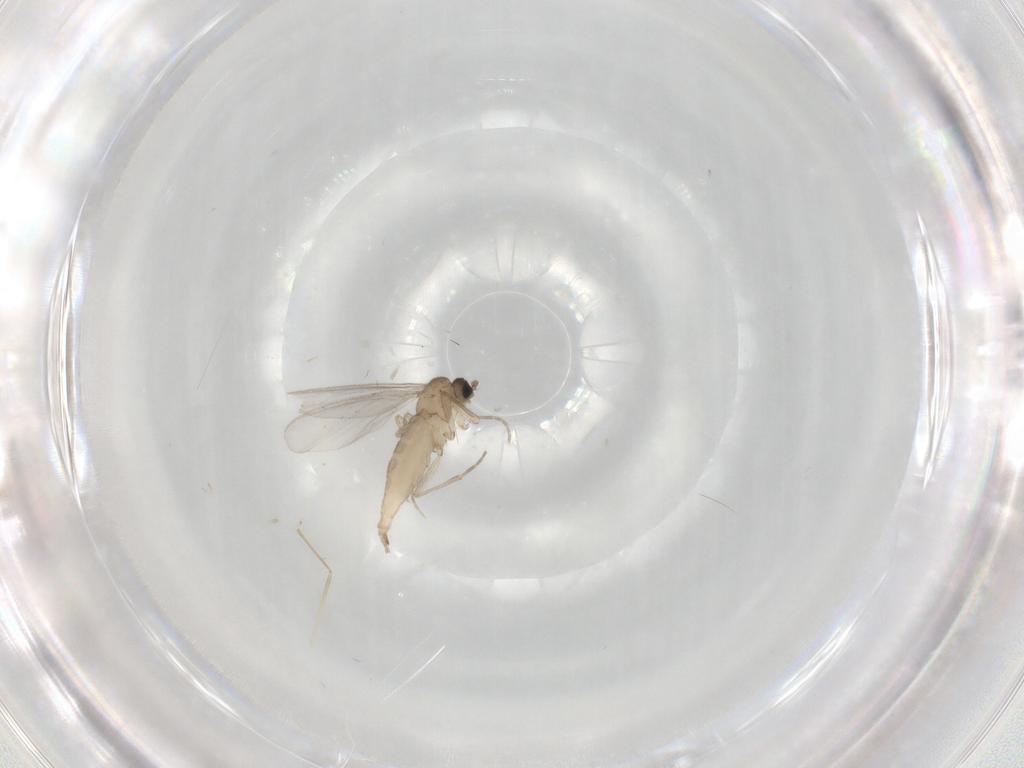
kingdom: Animalia
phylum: Arthropoda
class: Insecta
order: Diptera
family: Cecidomyiidae
